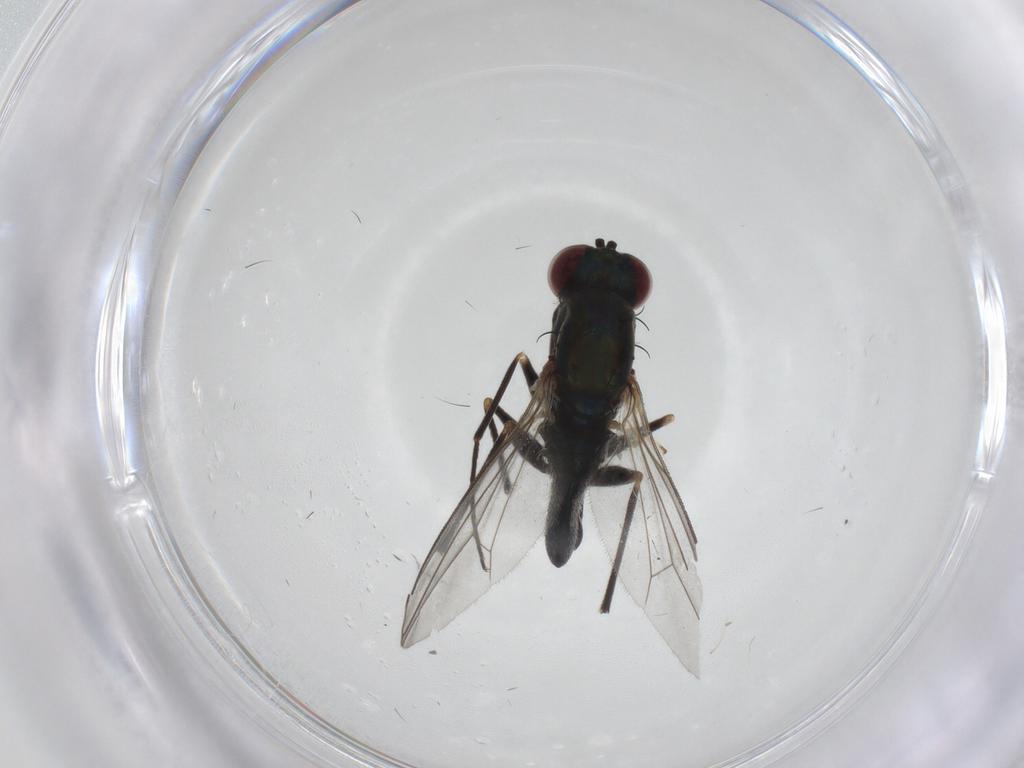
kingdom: Animalia
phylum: Arthropoda
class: Insecta
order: Diptera
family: Dolichopodidae
